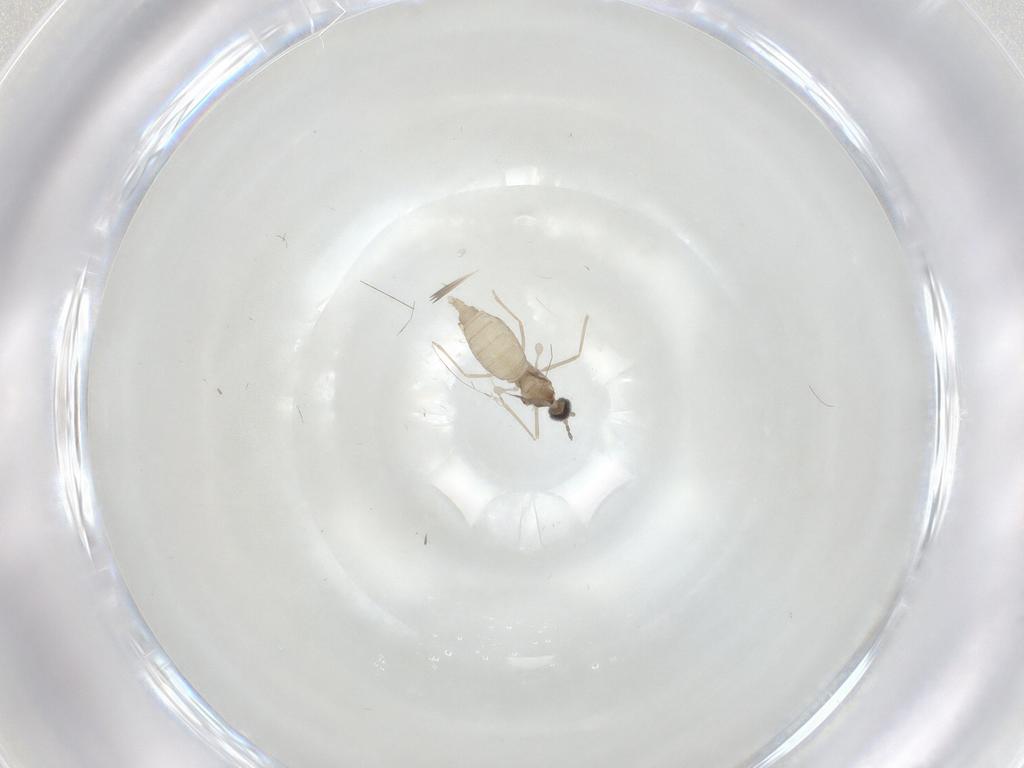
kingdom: Animalia
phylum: Arthropoda
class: Insecta
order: Diptera
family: Cecidomyiidae
